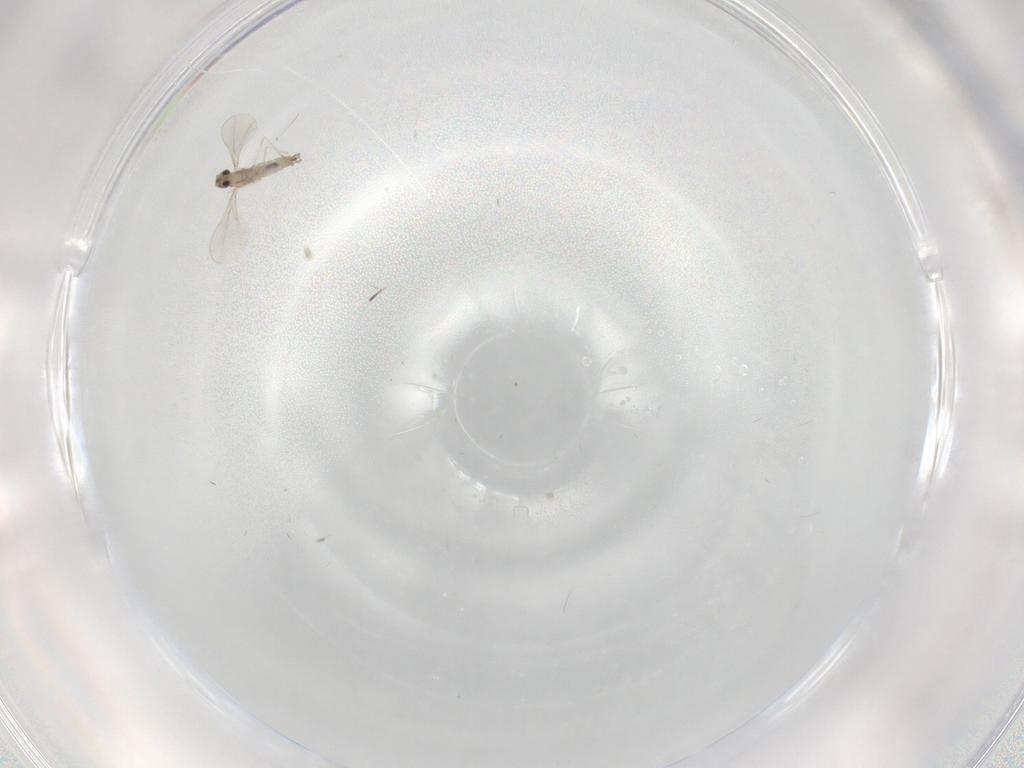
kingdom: Animalia
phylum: Arthropoda
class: Insecta
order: Diptera
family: Cecidomyiidae
